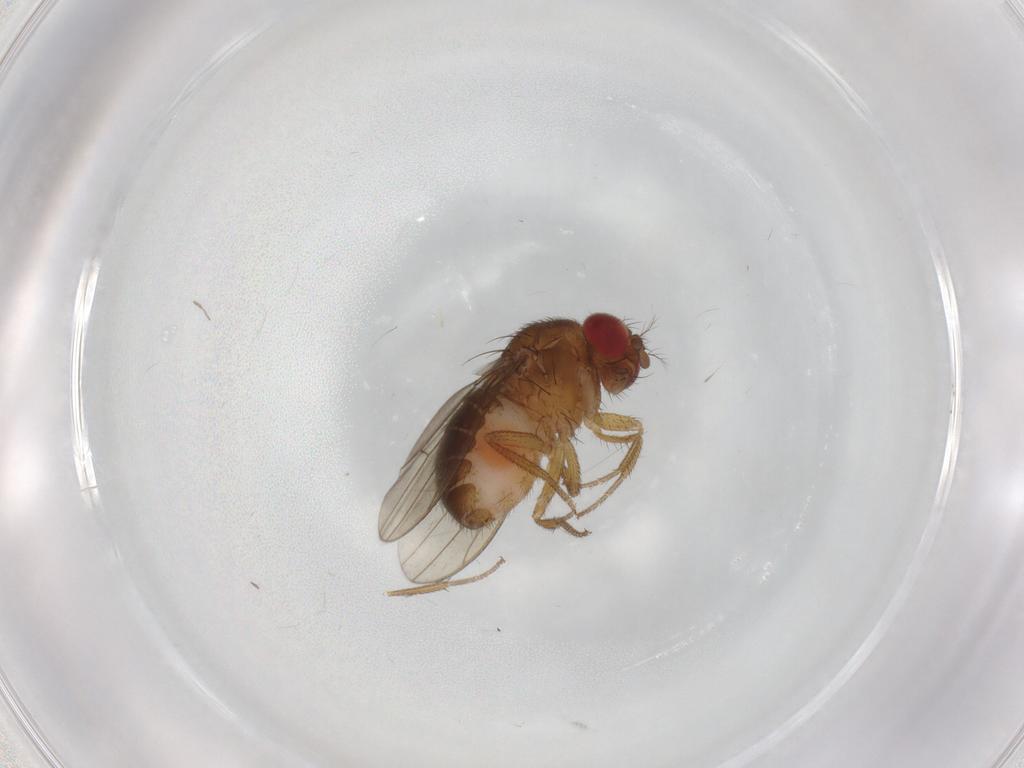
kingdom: Animalia
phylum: Arthropoda
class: Insecta
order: Diptera
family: Drosophilidae
